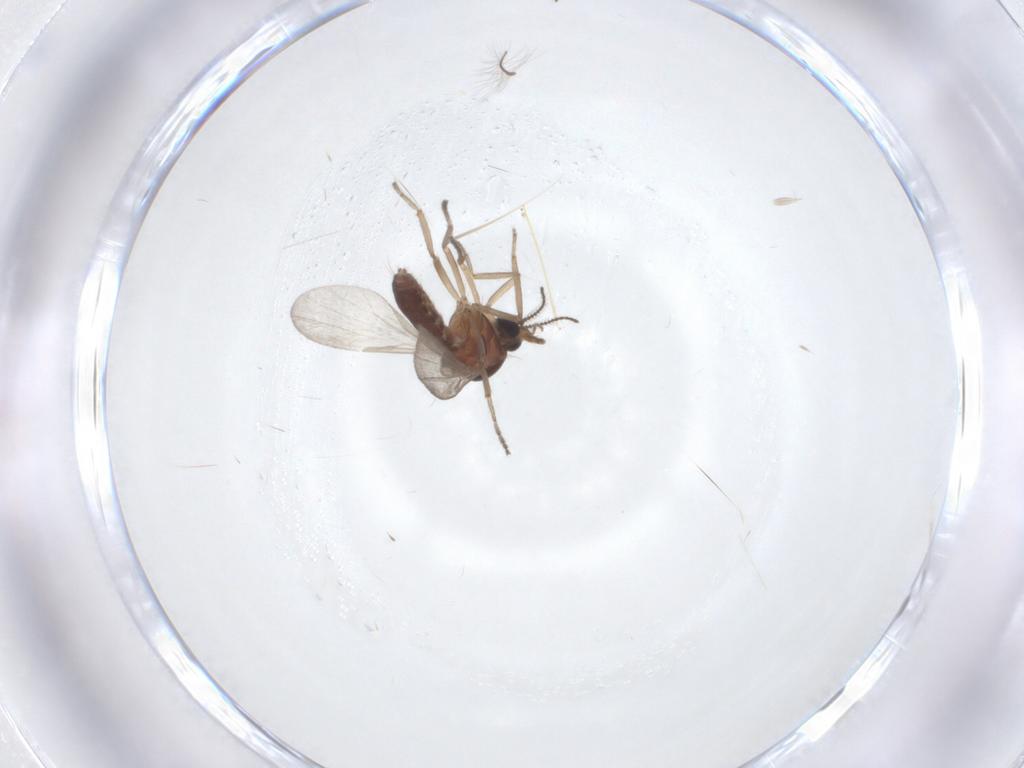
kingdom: Animalia
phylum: Arthropoda
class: Insecta
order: Diptera
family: Ceratopogonidae
